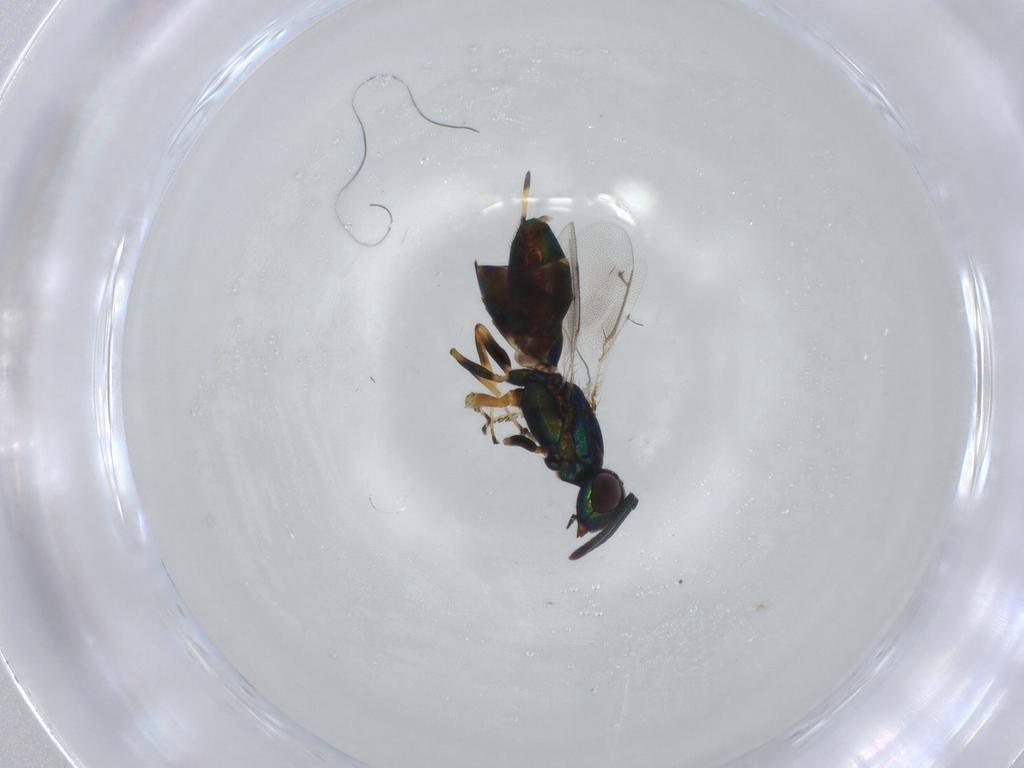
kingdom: Animalia
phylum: Arthropoda
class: Insecta
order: Hymenoptera
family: Eupelmidae
